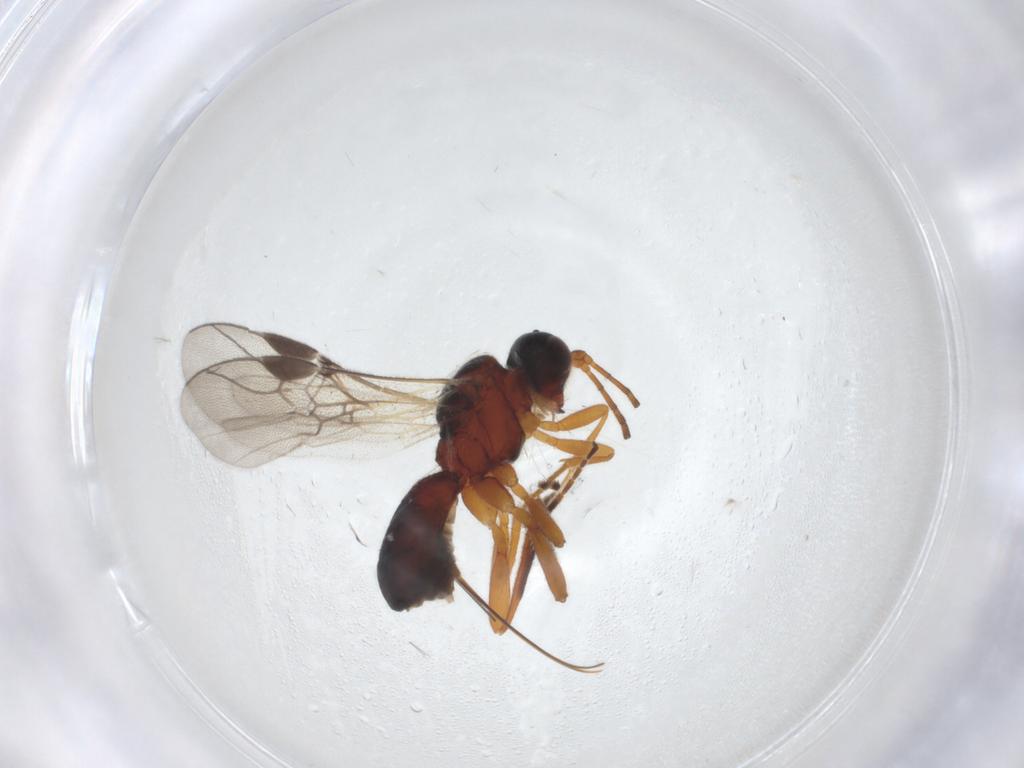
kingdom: Animalia
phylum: Arthropoda
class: Insecta
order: Hymenoptera
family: Braconidae
